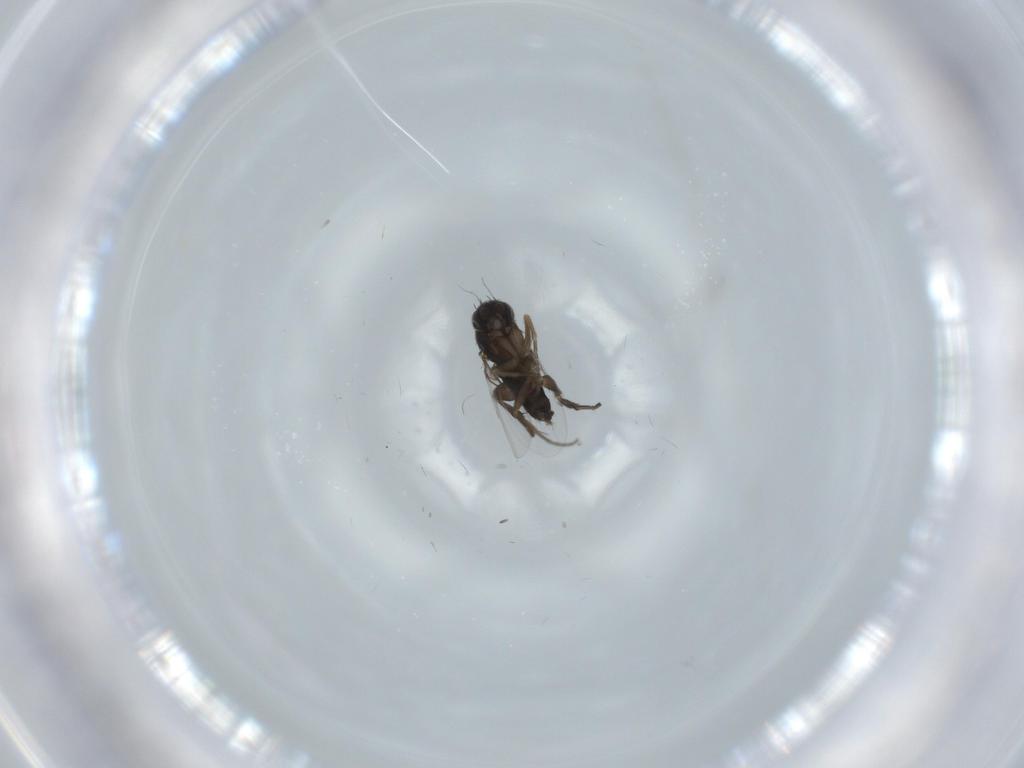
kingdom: Animalia
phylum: Arthropoda
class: Insecta
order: Diptera
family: Phoridae
